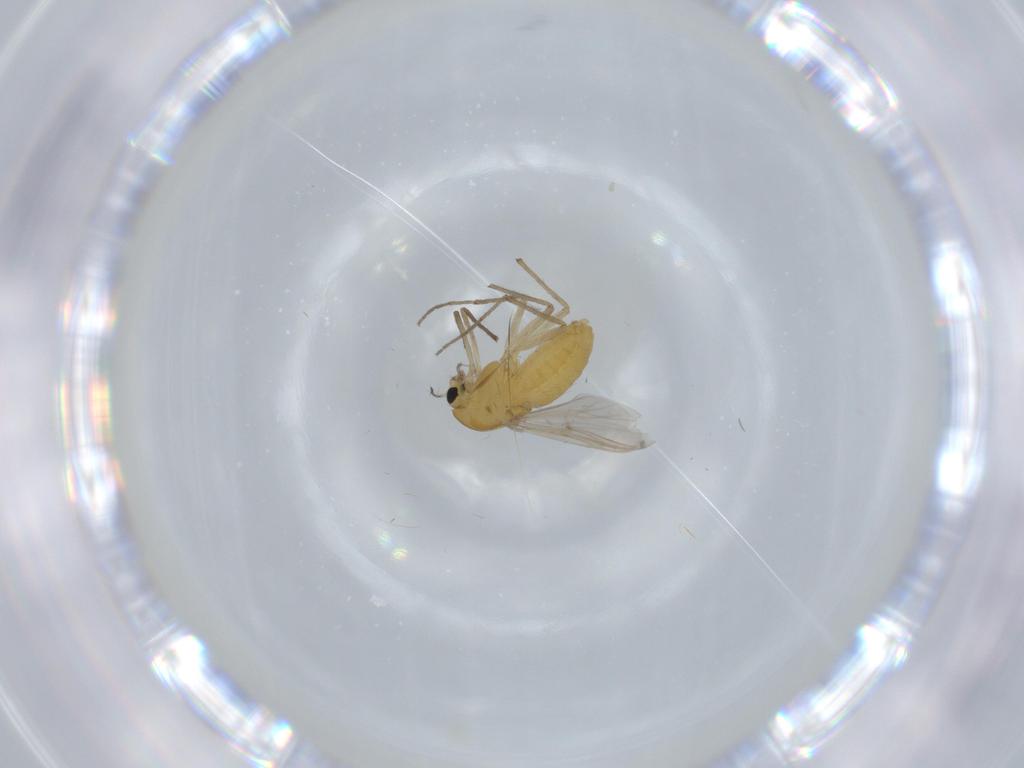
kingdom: Animalia
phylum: Arthropoda
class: Insecta
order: Diptera
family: Chironomidae
